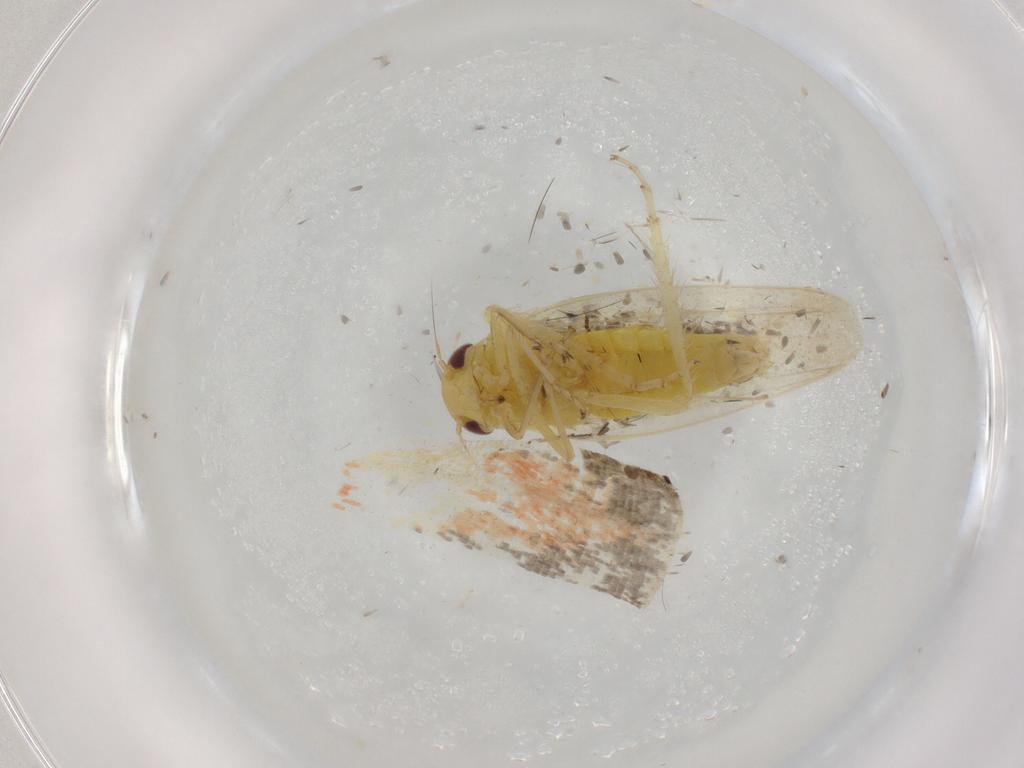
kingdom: Animalia
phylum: Arthropoda
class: Insecta
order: Hemiptera
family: Cicadellidae
